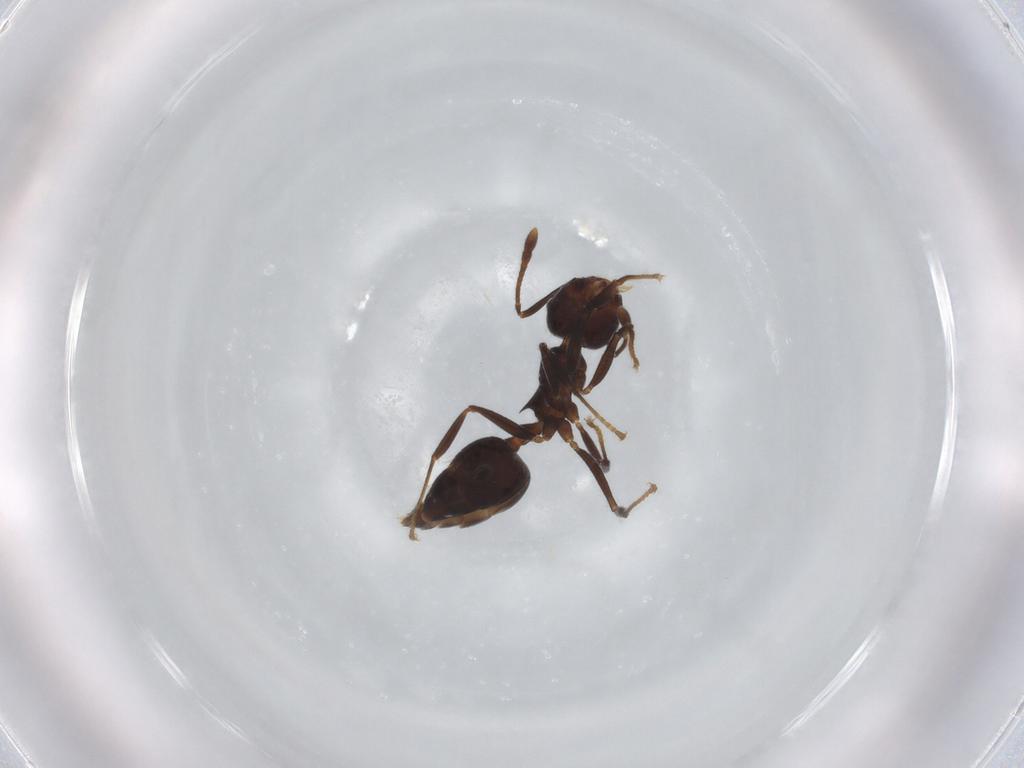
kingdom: Animalia
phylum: Arthropoda
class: Insecta
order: Hymenoptera
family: Formicidae
